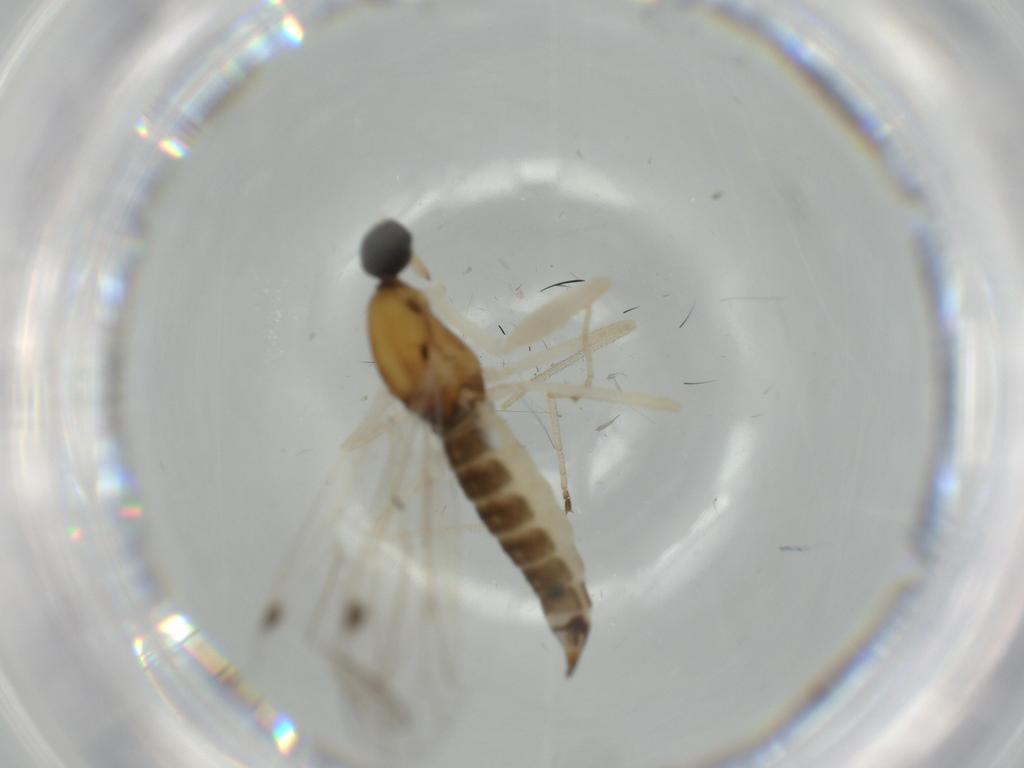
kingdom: Animalia
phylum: Arthropoda
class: Insecta
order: Diptera
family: Empididae
